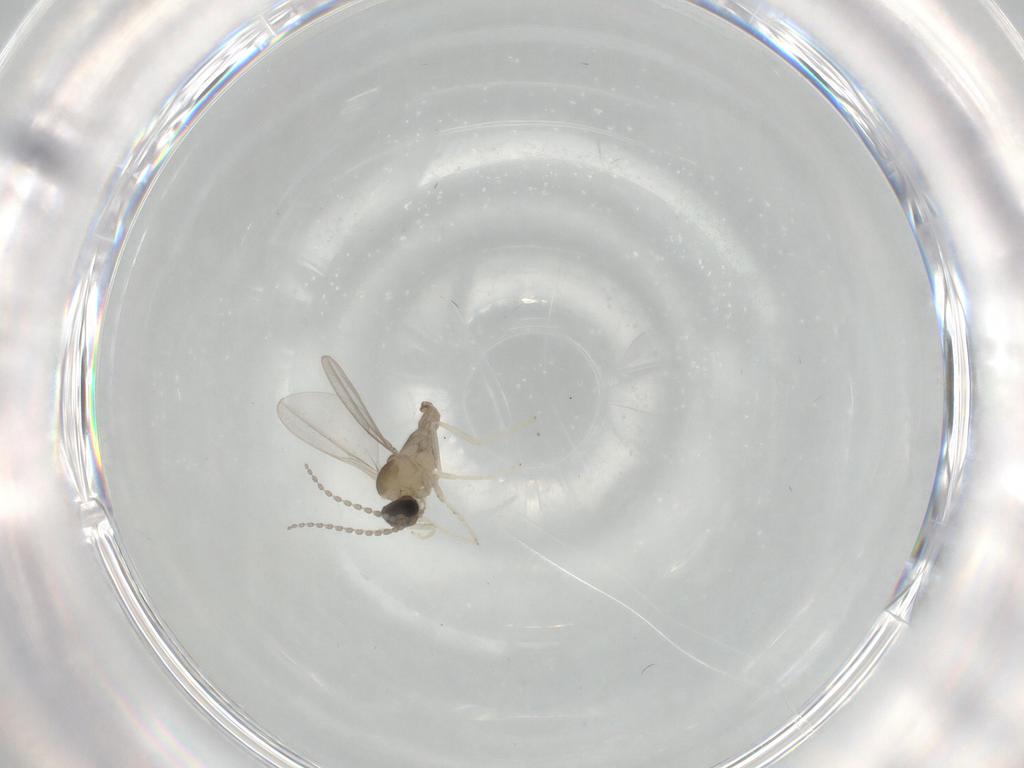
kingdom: Animalia
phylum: Arthropoda
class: Insecta
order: Diptera
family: Cecidomyiidae
